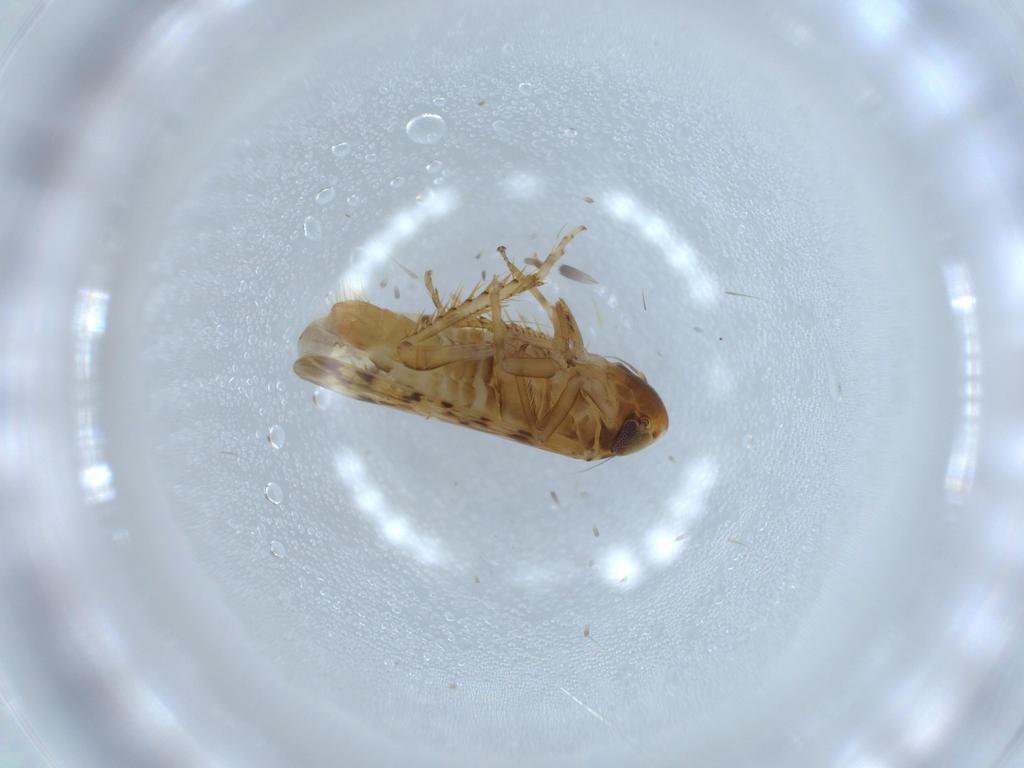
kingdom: Animalia
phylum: Arthropoda
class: Insecta
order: Hemiptera
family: Cicadellidae
